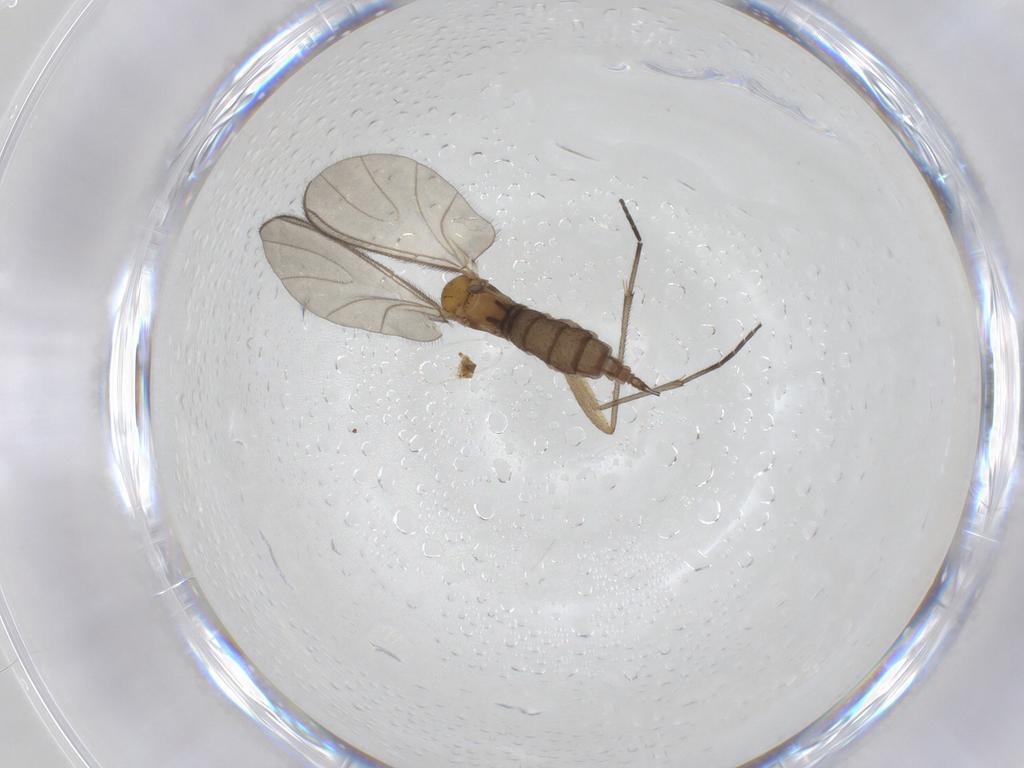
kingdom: Animalia
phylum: Arthropoda
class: Insecta
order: Diptera
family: Sciaridae
